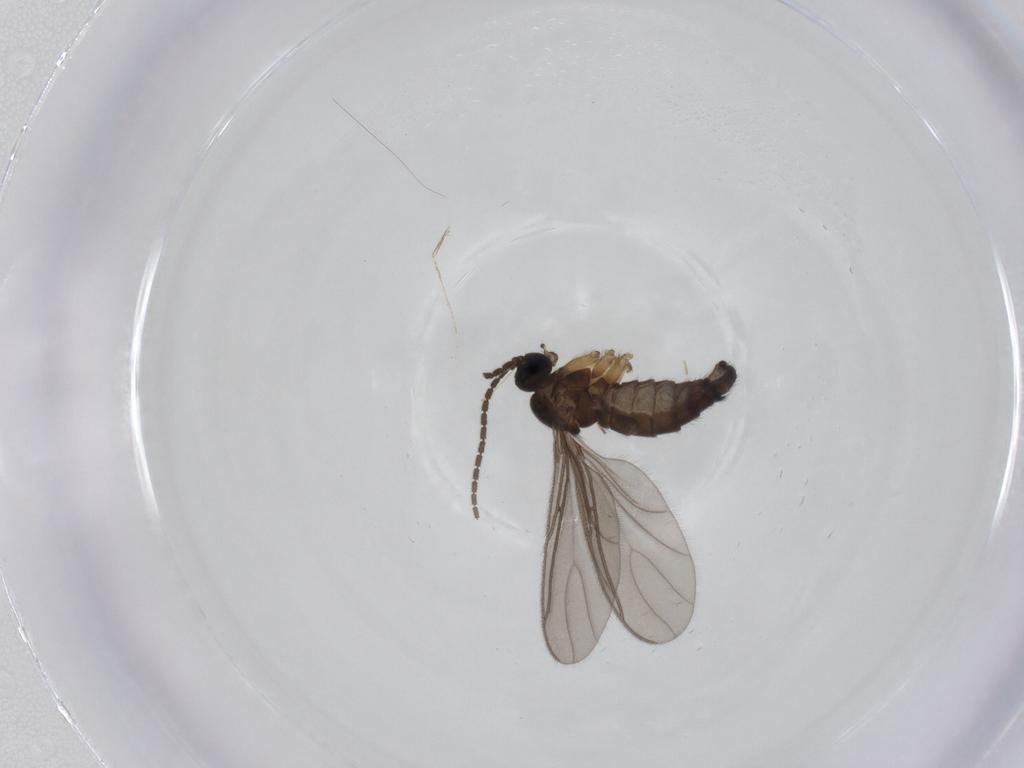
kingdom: Animalia
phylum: Arthropoda
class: Insecta
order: Diptera
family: Sciaridae
